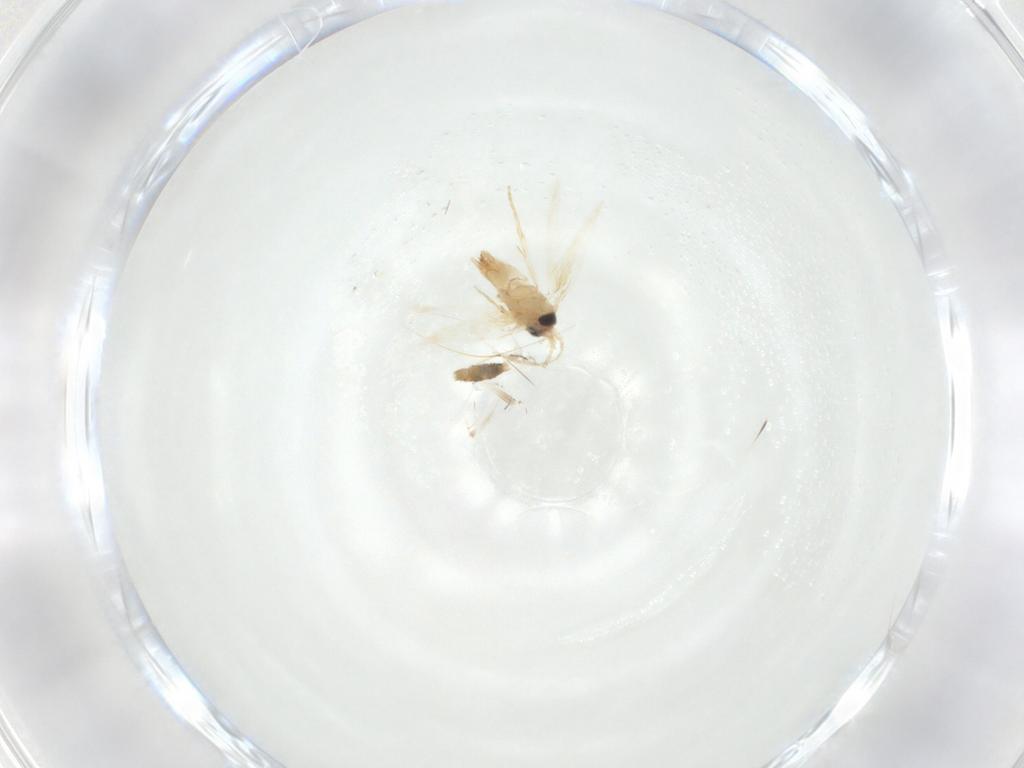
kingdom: Animalia
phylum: Arthropoda
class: Insecta
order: Lepidoptera
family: Crambidae
